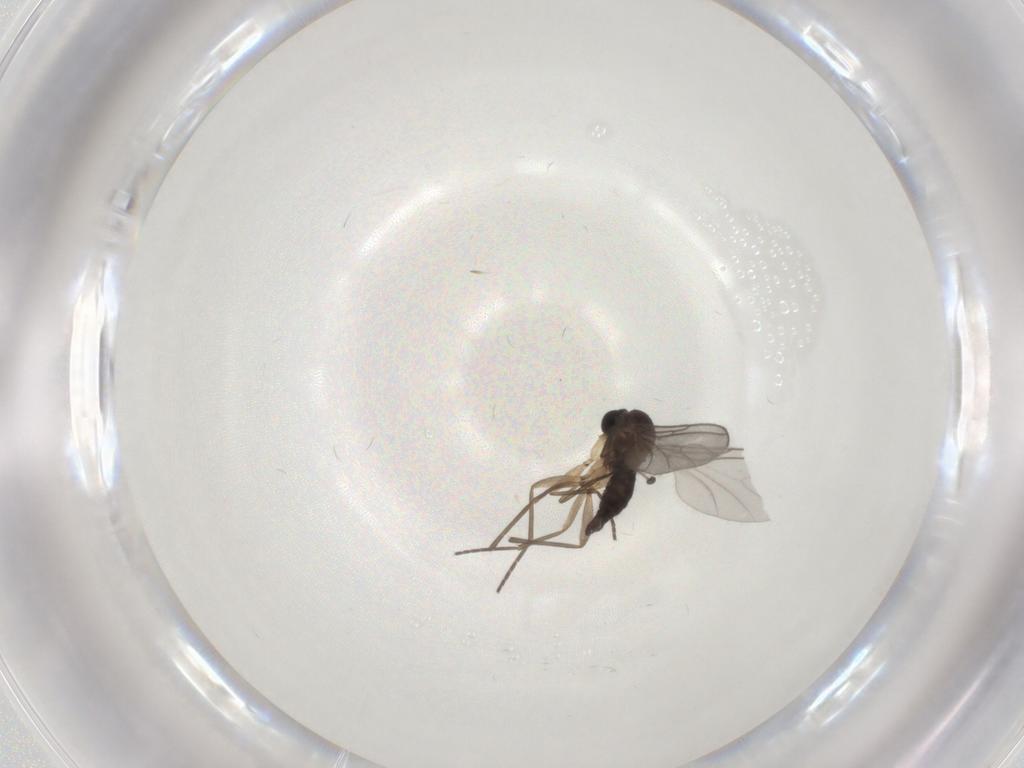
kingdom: Animalia
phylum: Arthropoda
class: Insecta
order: Diptera
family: Sciaridae
